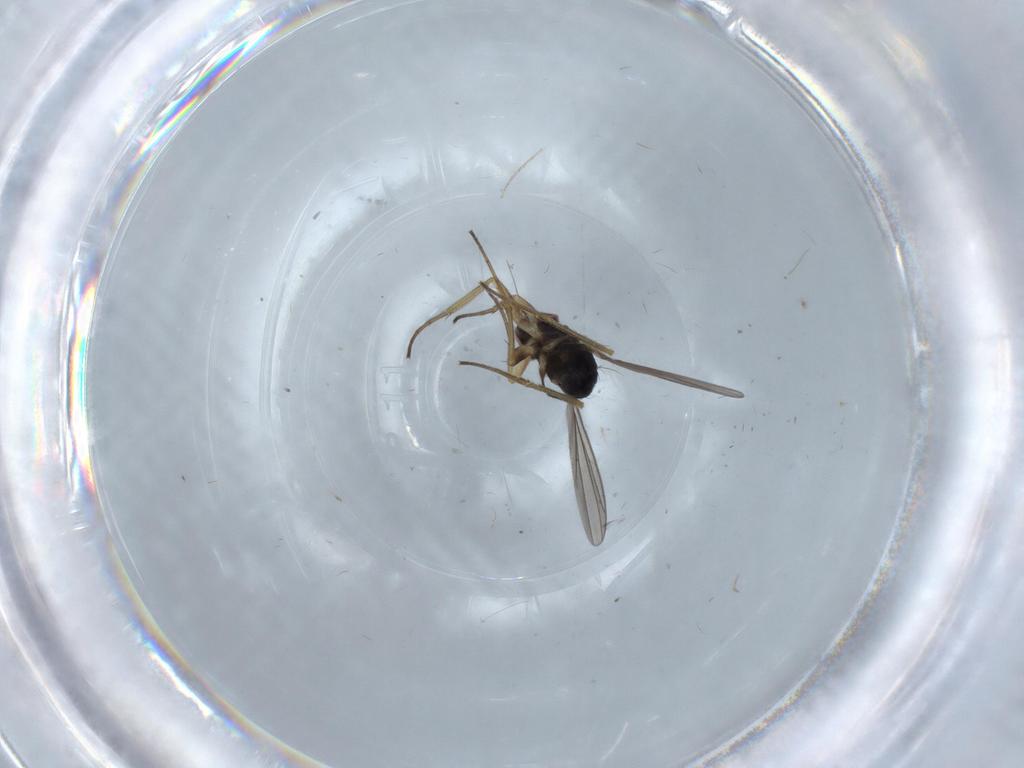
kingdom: Animalia
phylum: Arthropoda
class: Insecta
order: Diptera
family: Dolichopodidae
